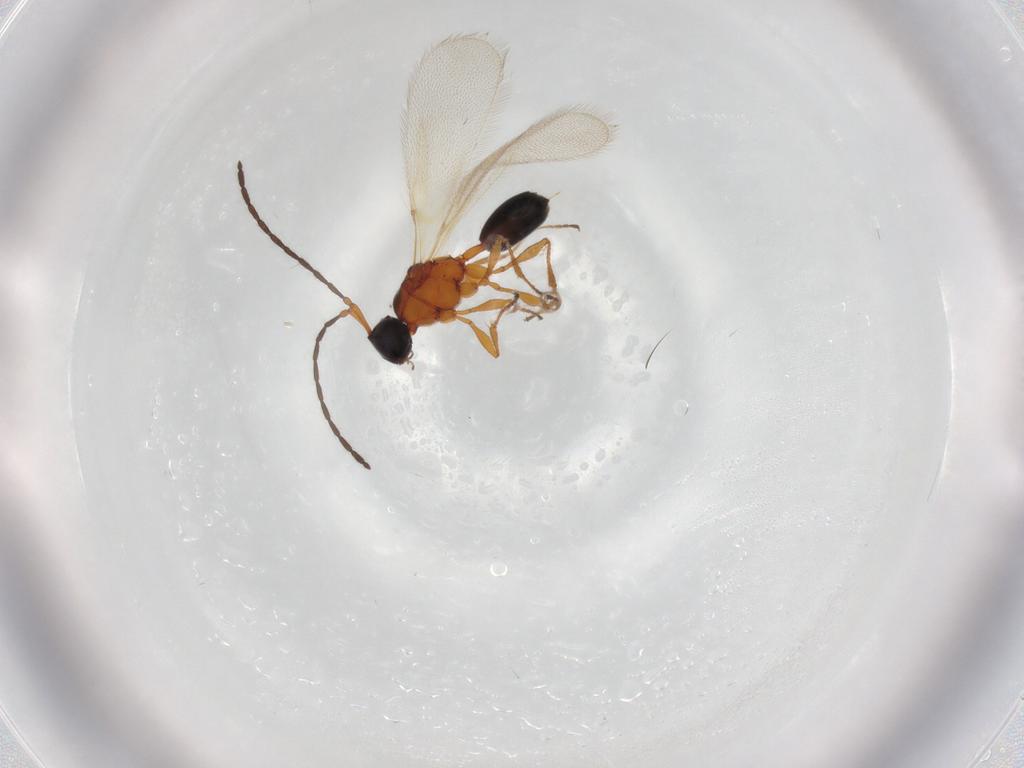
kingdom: Animalia
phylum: Arthropoda
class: Insecta
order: Hymenoptera
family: Diapriidae
